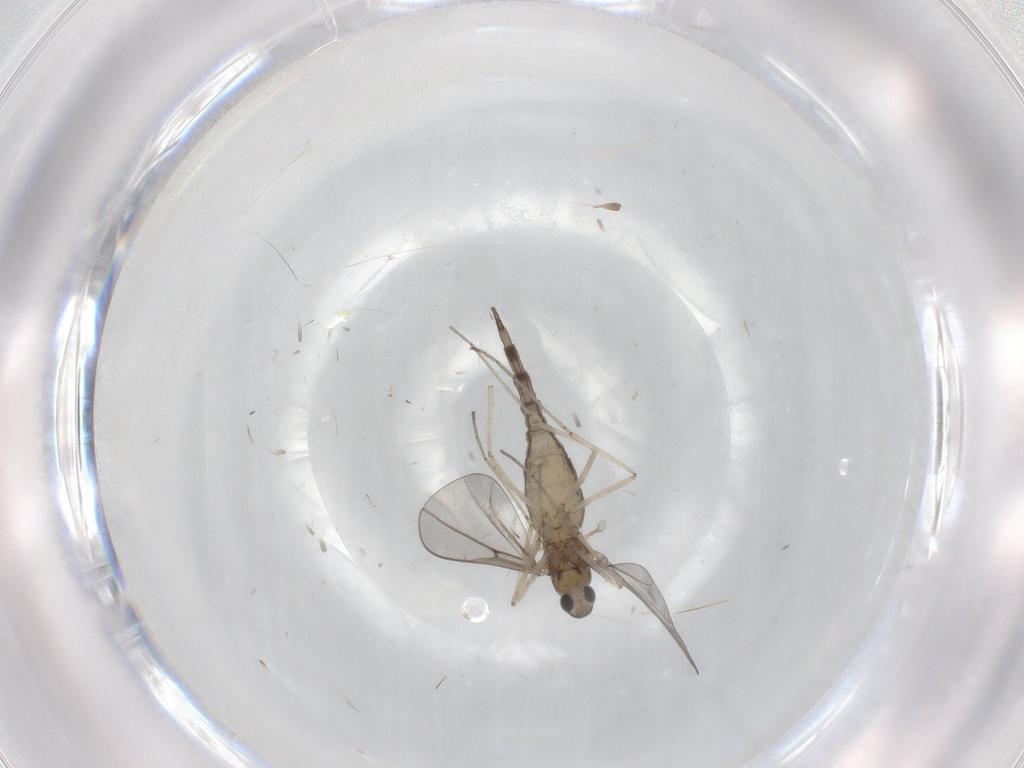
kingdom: Animalia
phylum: Arthropoda
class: Insecta
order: Diptera
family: Cecidomyiidae
